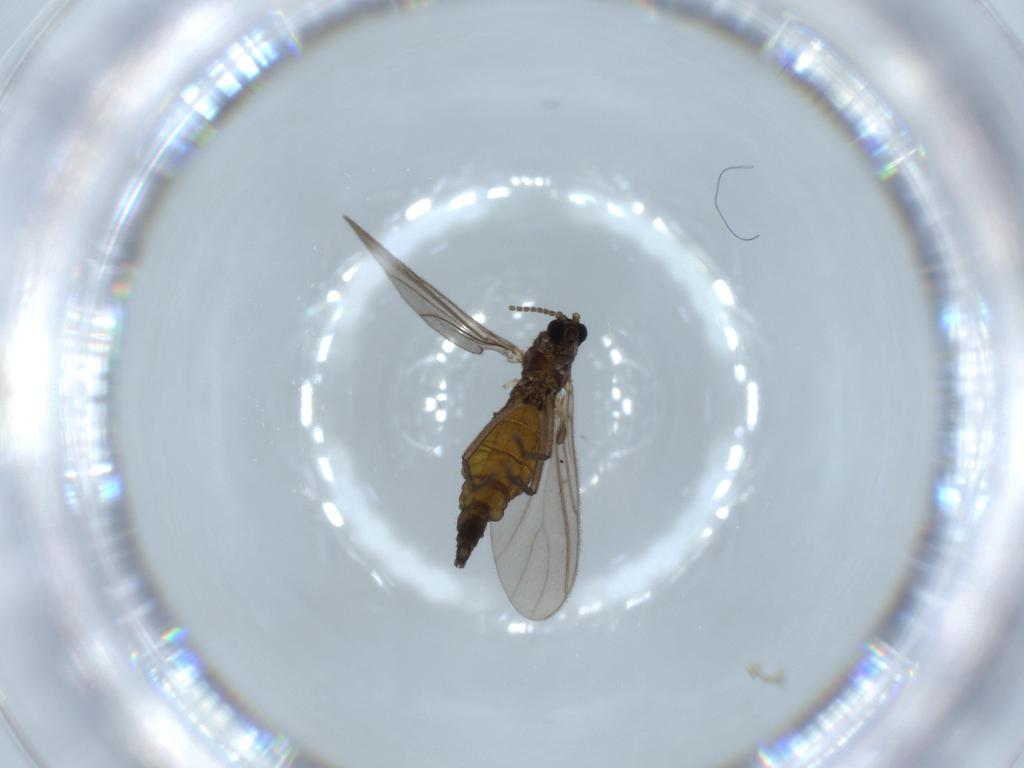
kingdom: Animalia
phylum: Arthropoda
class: Insecta
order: Diptera
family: Sciaridae
